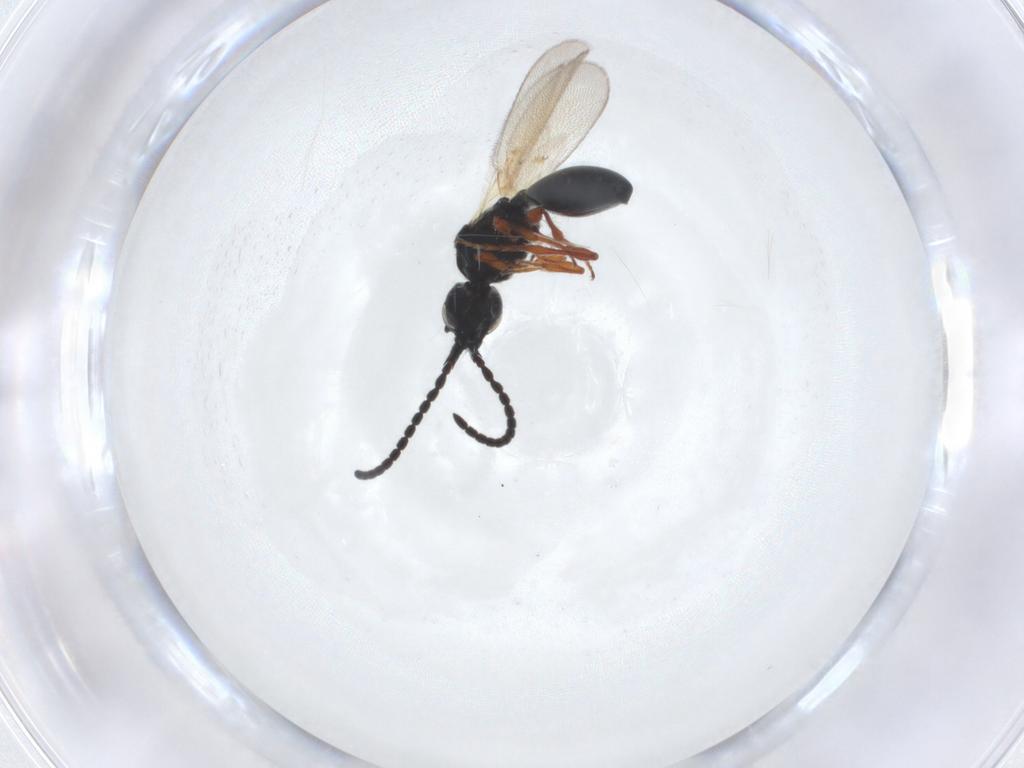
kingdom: Animalia
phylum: Arthropoda
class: Insecta
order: Hymenoptera
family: Diapriidae
